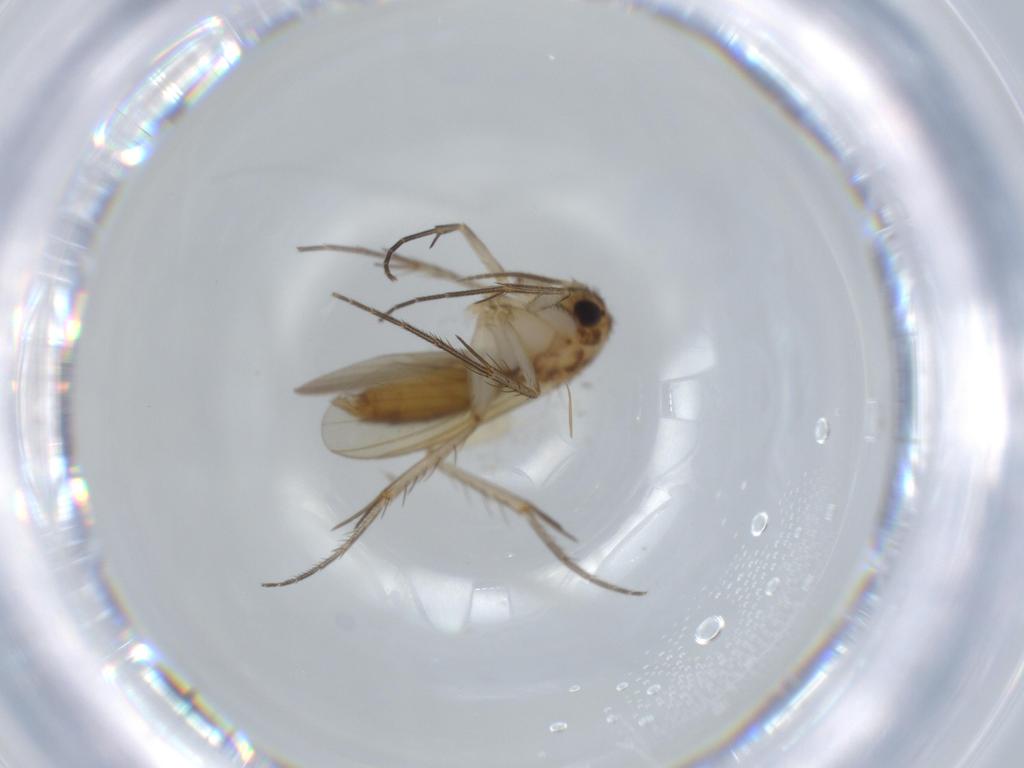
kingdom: Animalia
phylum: Arthropoda
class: Insecta
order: Diptera
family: Mycetophilidae
